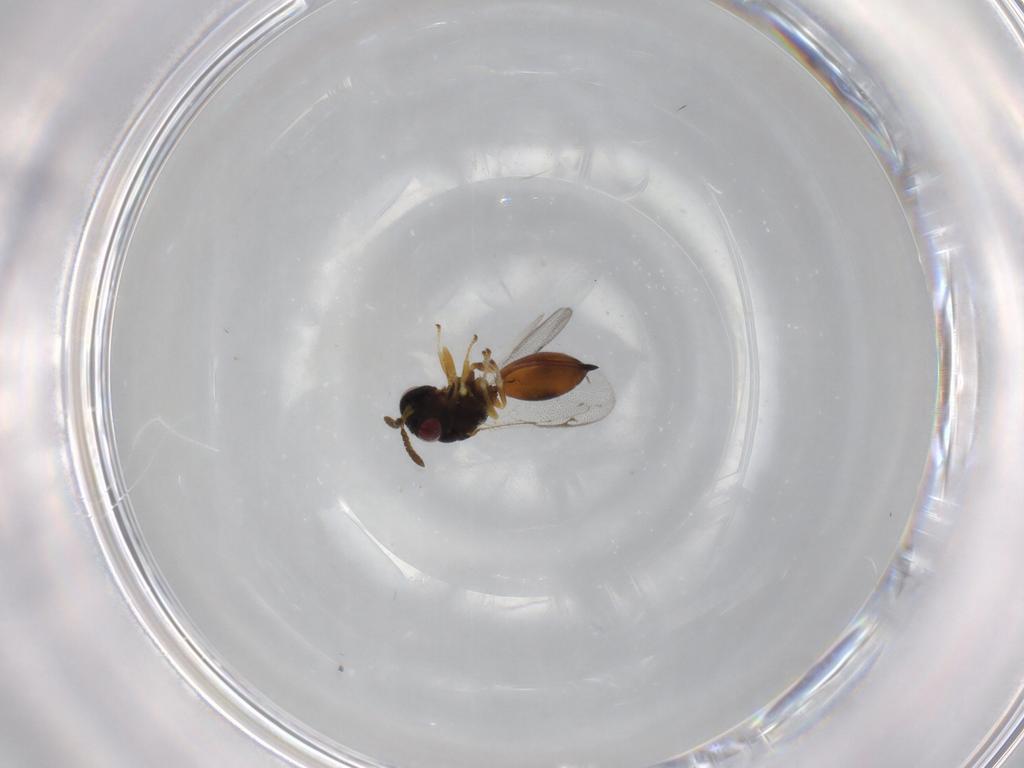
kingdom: Animalia
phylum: Arthropoda
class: Insecta
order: Hymenoptera
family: Eurytomidae
